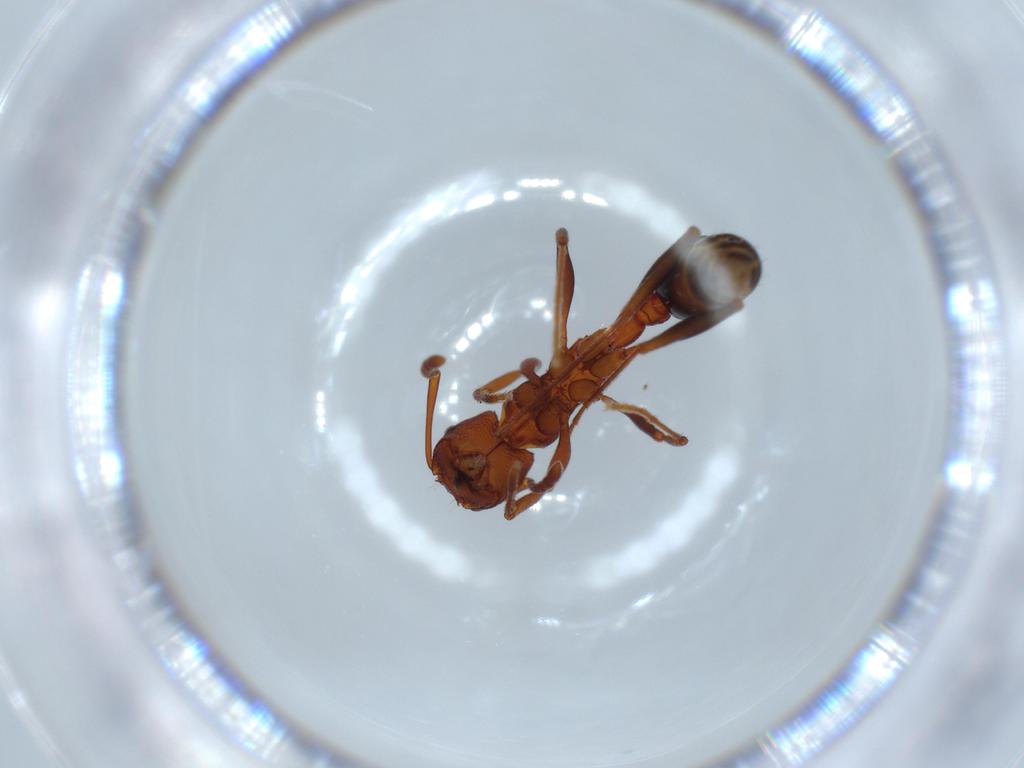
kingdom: Animalia
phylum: Arthropoda
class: Insecta
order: Hymenoptera
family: Formicidae
